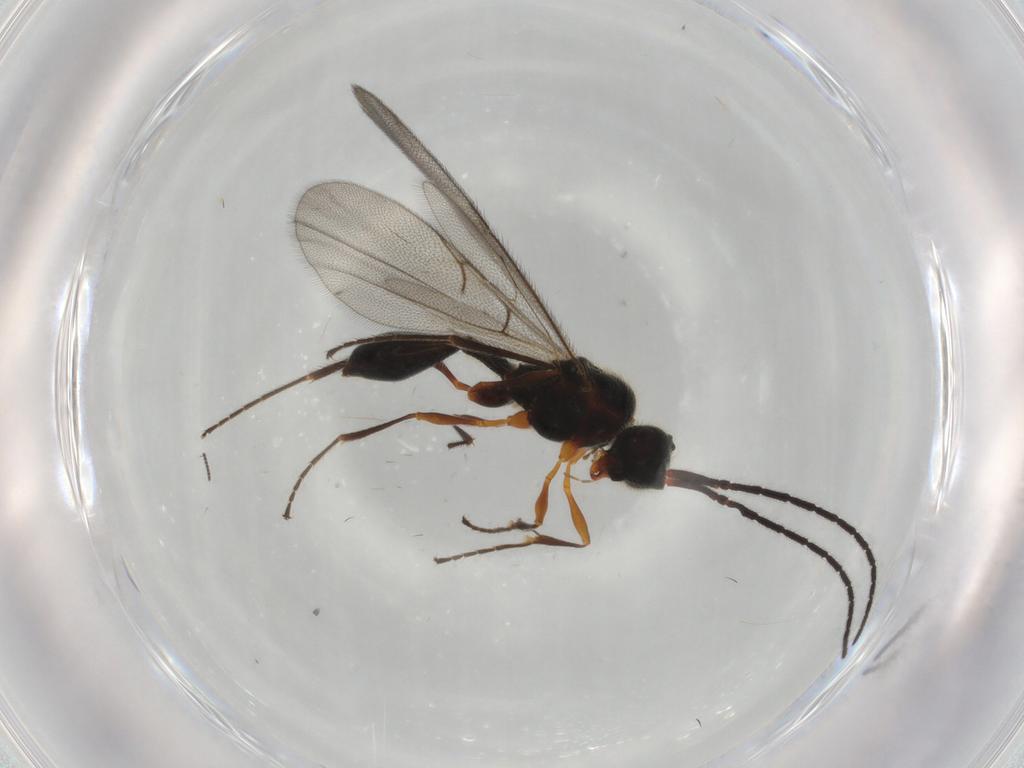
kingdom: Animalia
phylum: Arthropoda
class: Insecta
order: Hymenoptera
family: Diapriidae
